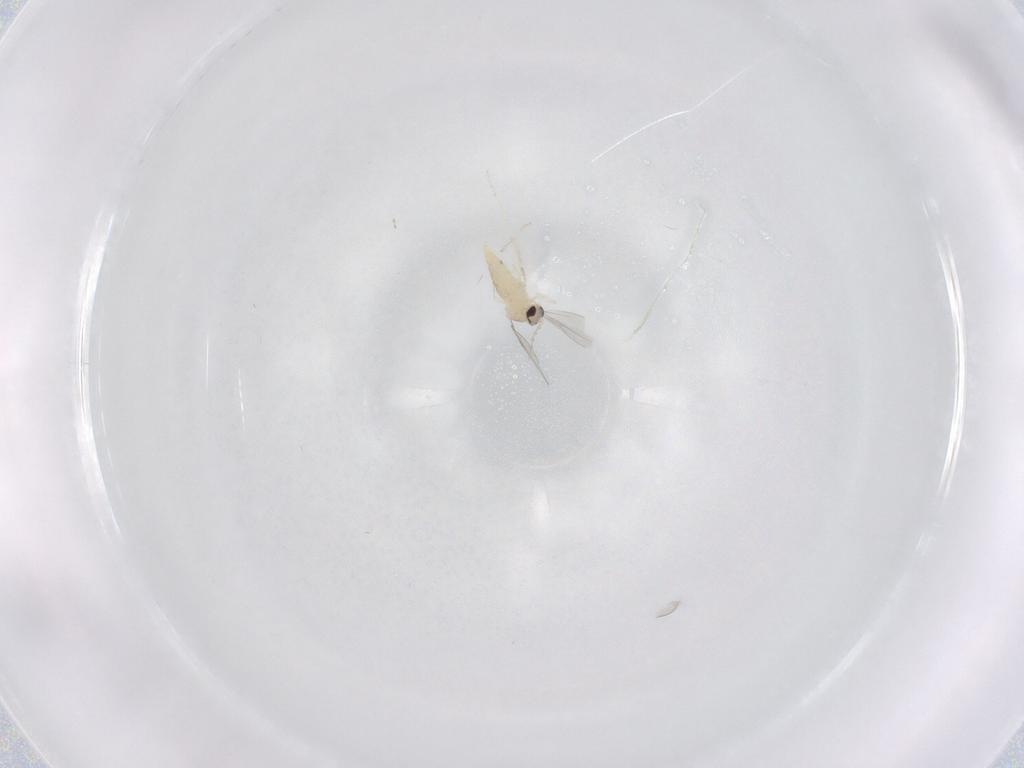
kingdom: Animalia
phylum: Arthropoda
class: Insecta
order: Diptera
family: Cecidomyiidae
